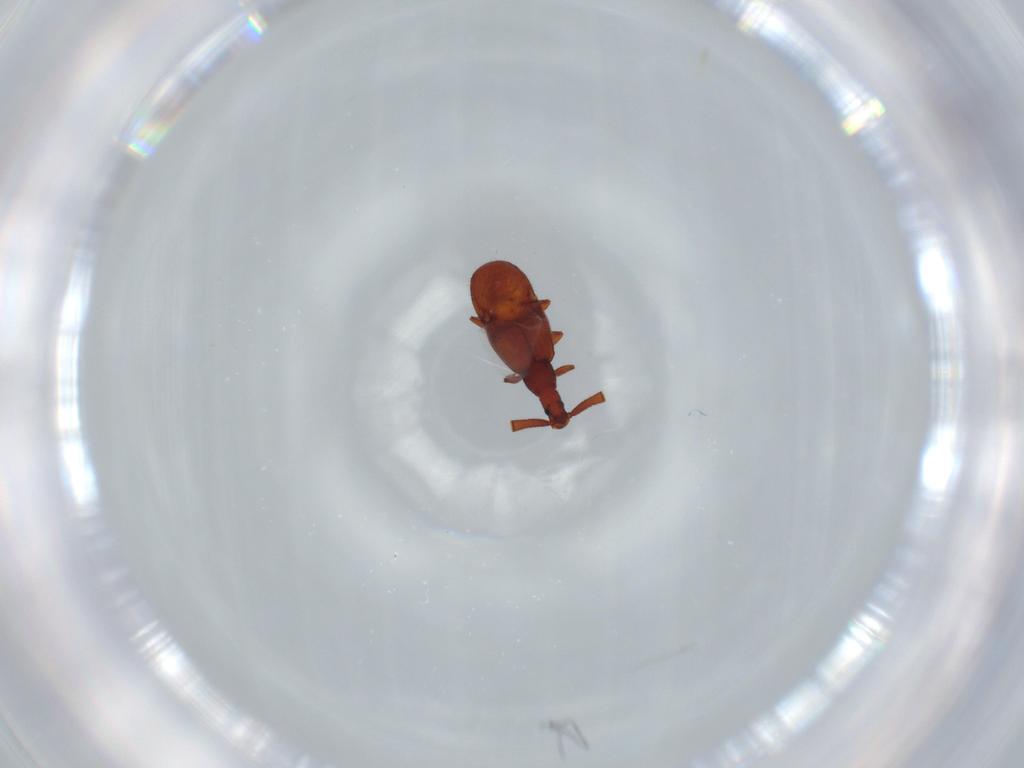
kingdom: Animalia
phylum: Arthropoda
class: Insecta
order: Coleoptera
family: Staphylinidae
